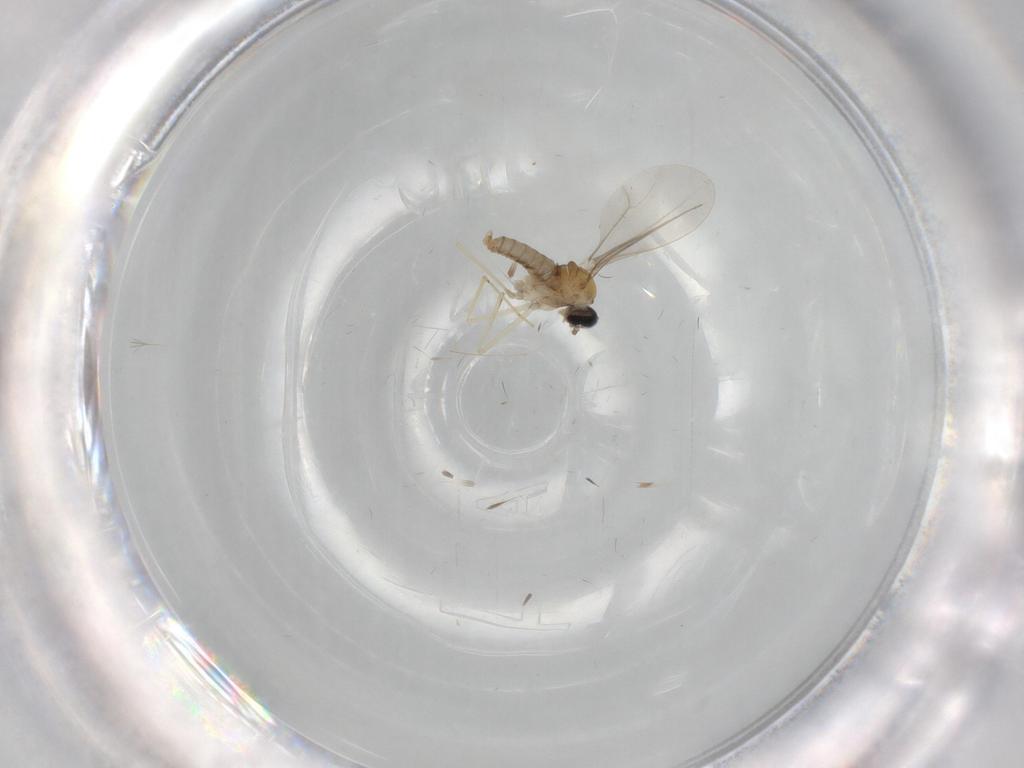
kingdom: Animalia
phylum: Arthropoda
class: Insecta
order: Diptera
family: Cecidomyiidae
